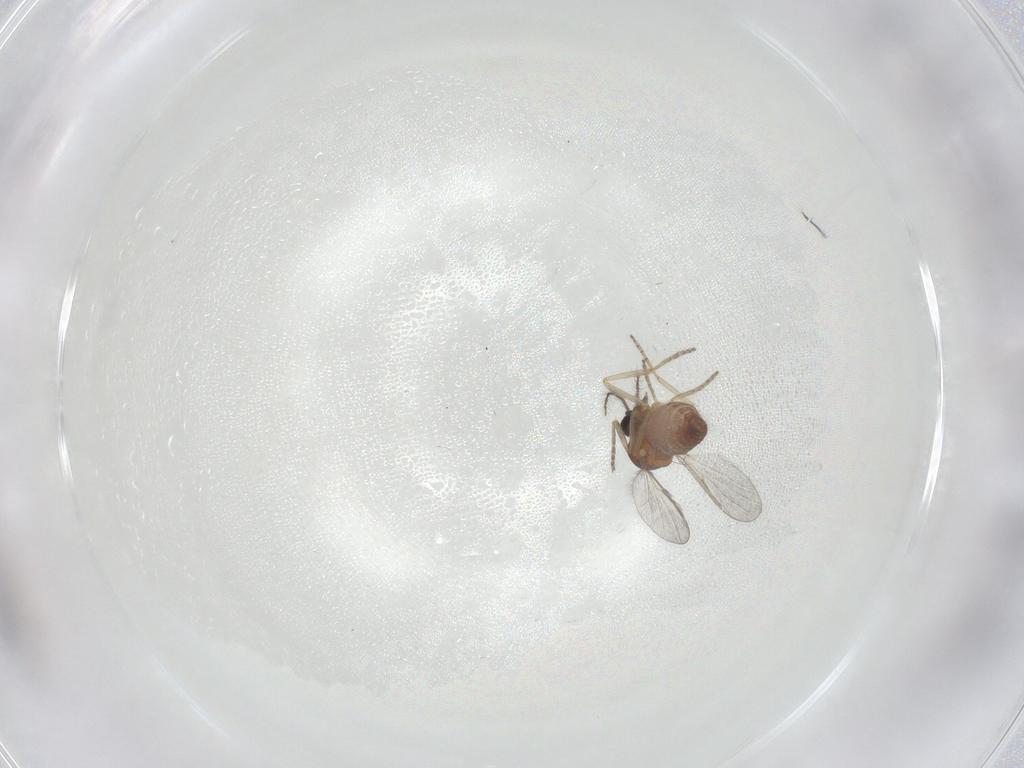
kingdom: Animalia
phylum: Arthropoda
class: Insecta
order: Diptera
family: Ceratopogonidae
